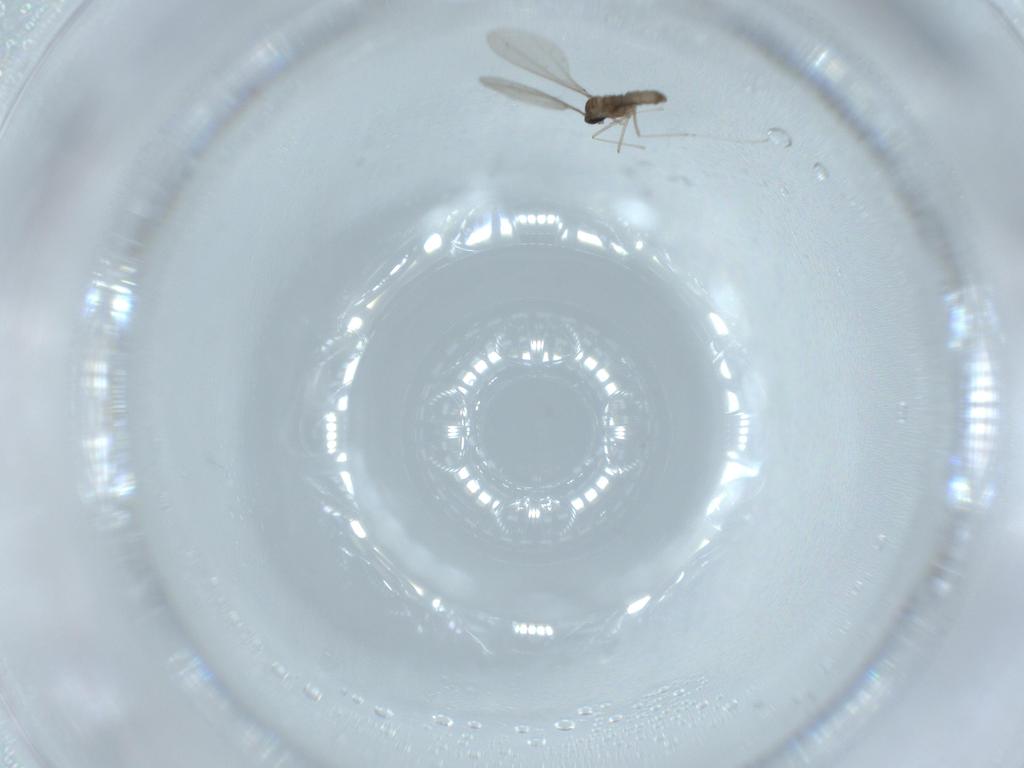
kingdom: Animalia
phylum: Arthropoda
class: Insecta
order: Diptera
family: Cecidomyiidae
